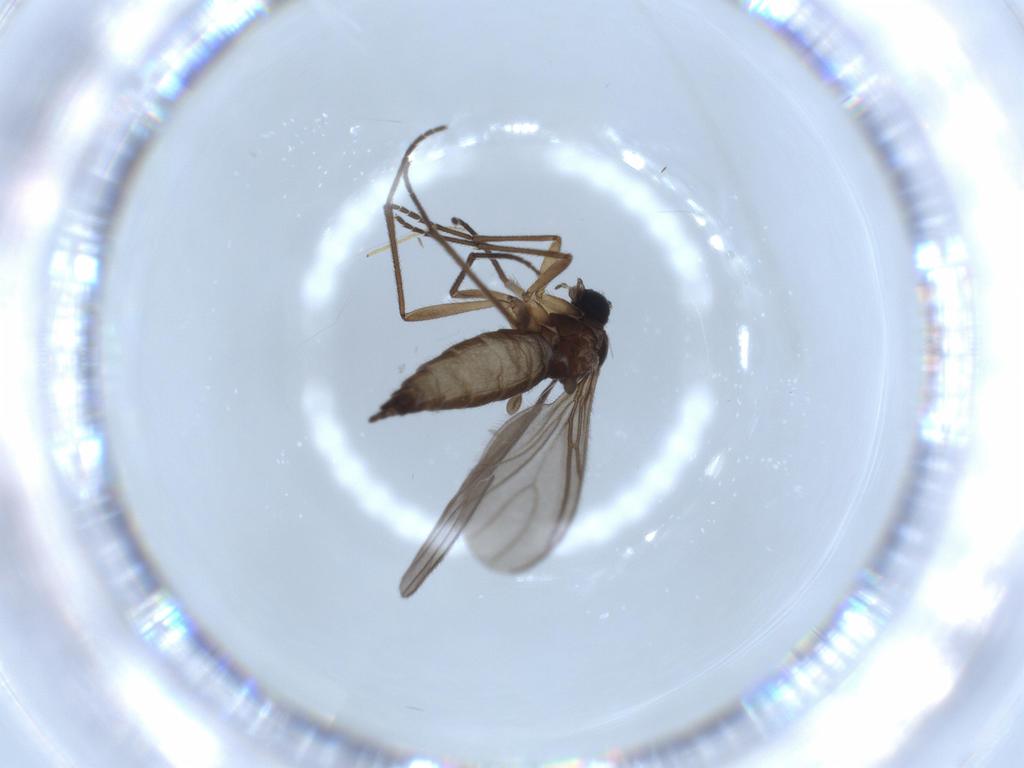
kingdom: Animalia
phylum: Arthropoda
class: Insecta
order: Diptera
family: Sciaridae
